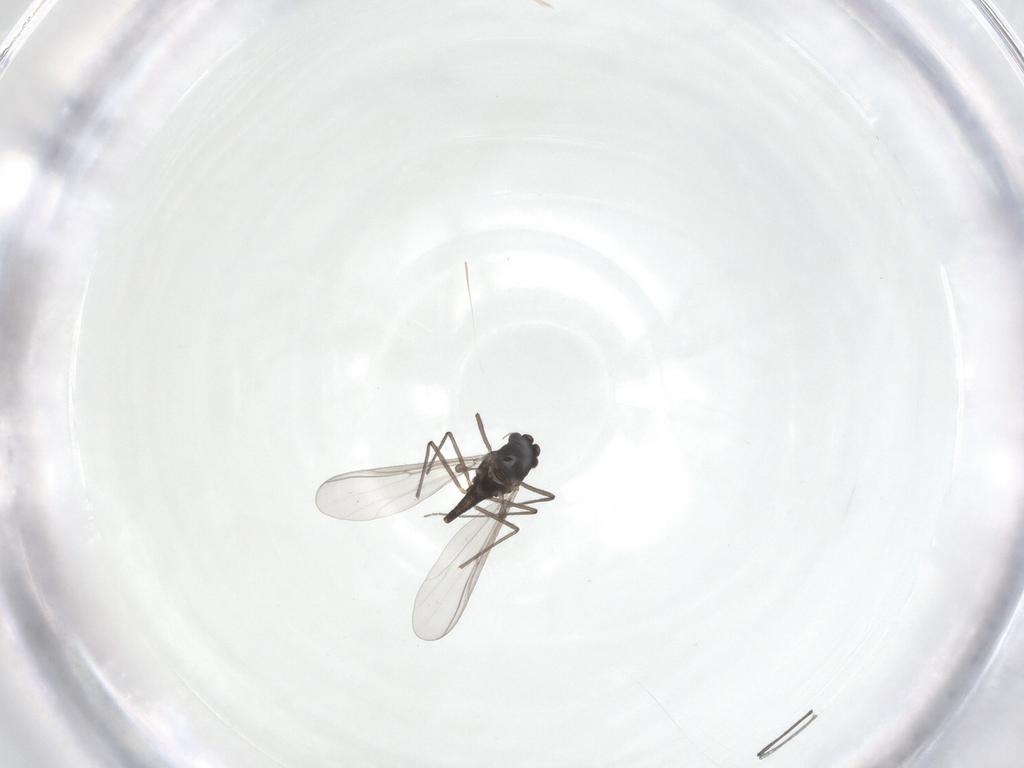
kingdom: Animalia
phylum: Arthropoda
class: Insecta
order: Diptera
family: Chironomidae
